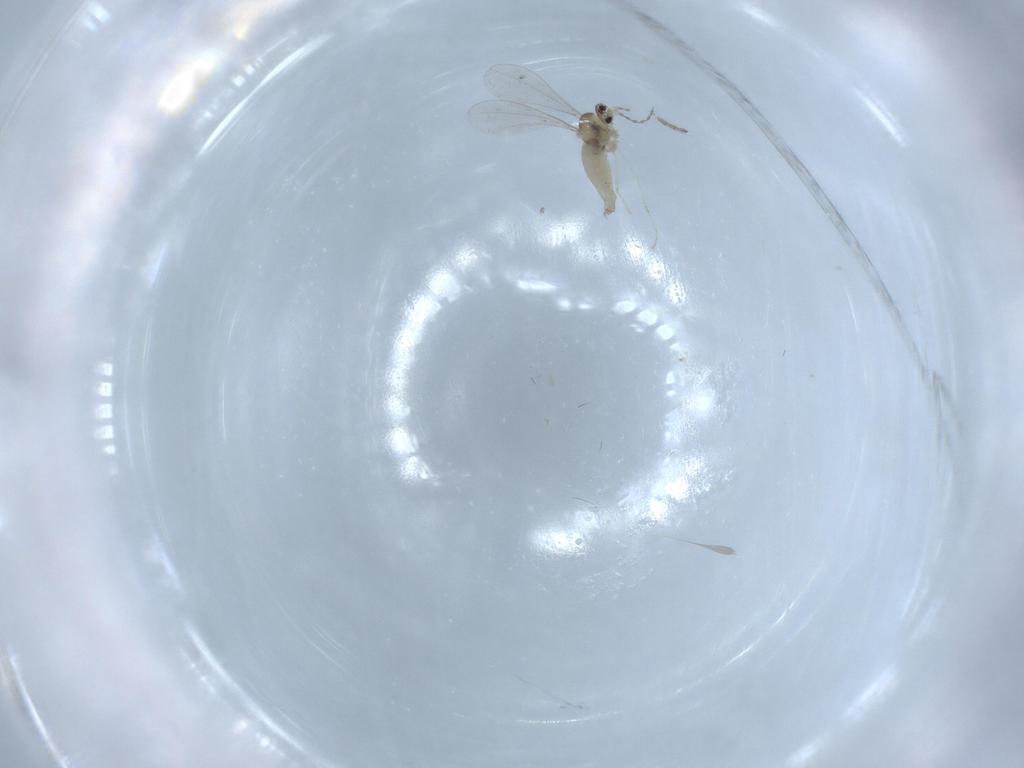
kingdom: Animalia
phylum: Arthropoda
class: Insecta
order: Diptera
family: Cecidomyiidae
